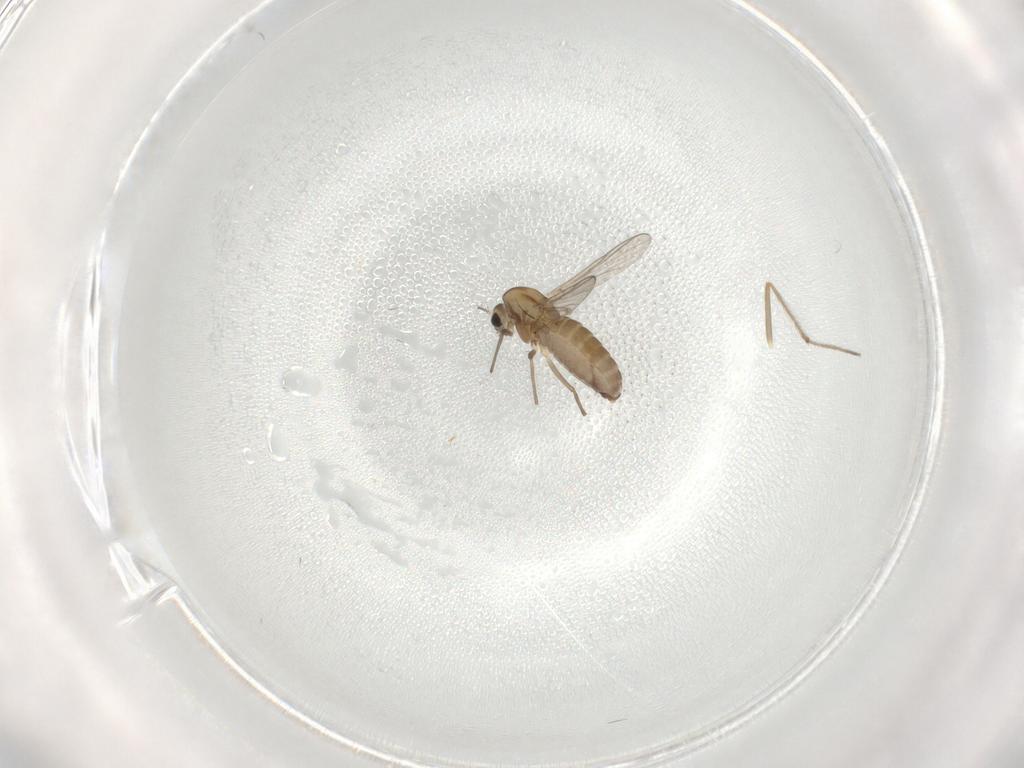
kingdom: Animalia
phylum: Arthropoda
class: Insecta
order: Diptera
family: Chironomidae
